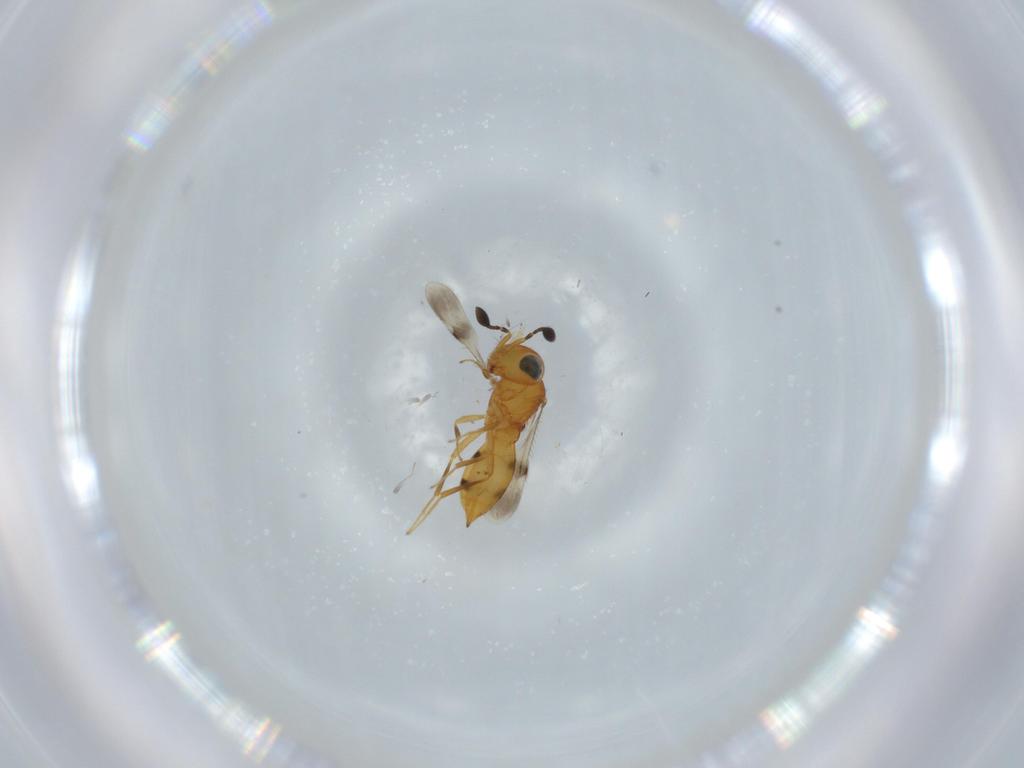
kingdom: Animalia
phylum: Arthropoda
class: Insecta
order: Hymenoptera
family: Scelionidae
